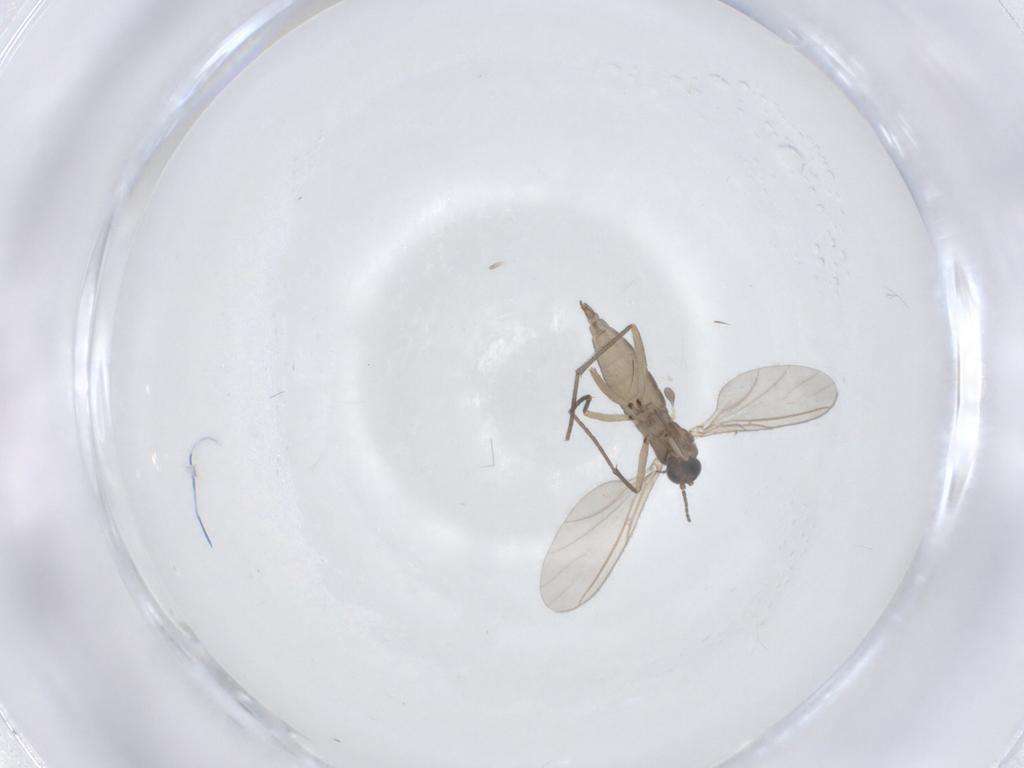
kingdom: Animalia
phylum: Arthropoda
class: Insecta
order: Diptera
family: Sciaridae
